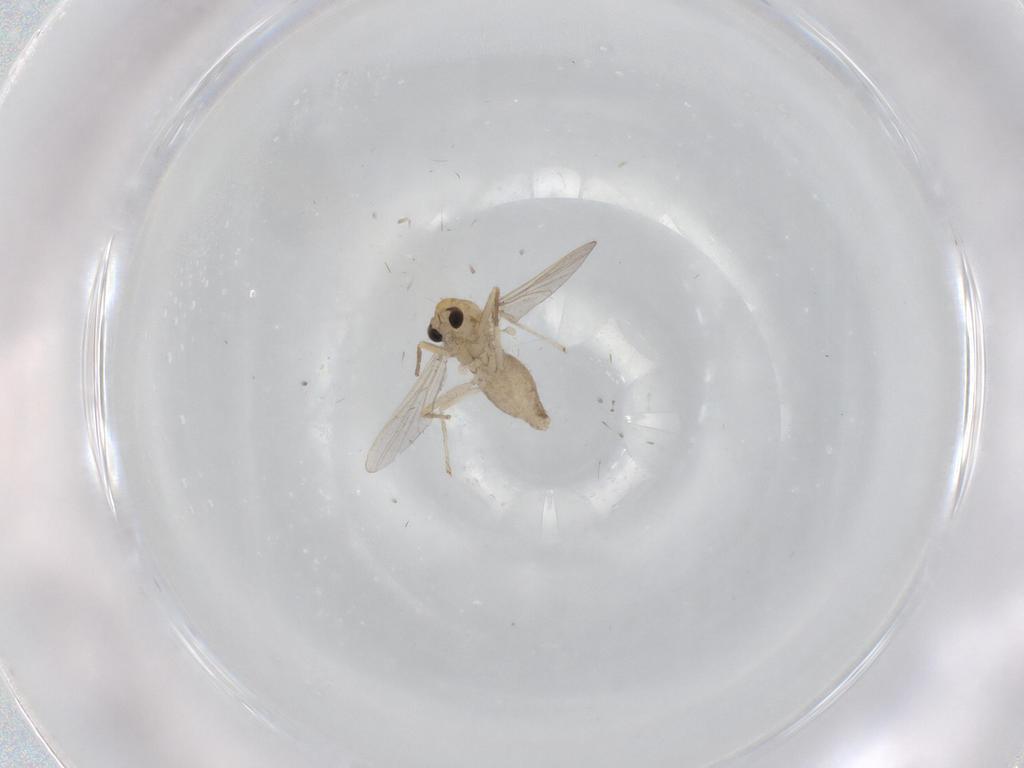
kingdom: Animalia
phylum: Arthropoda
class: Insecta
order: Diptera
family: Chironomidae
